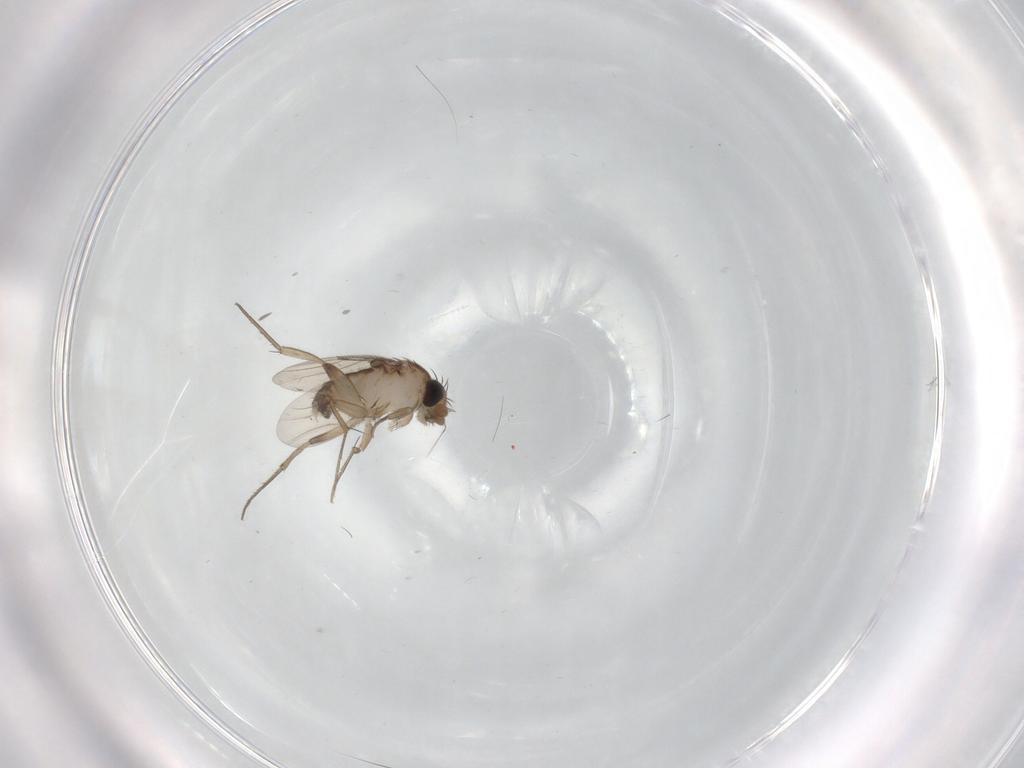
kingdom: Animalia
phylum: Arthropoda
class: Insecta
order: Diptera
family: Phoridae
